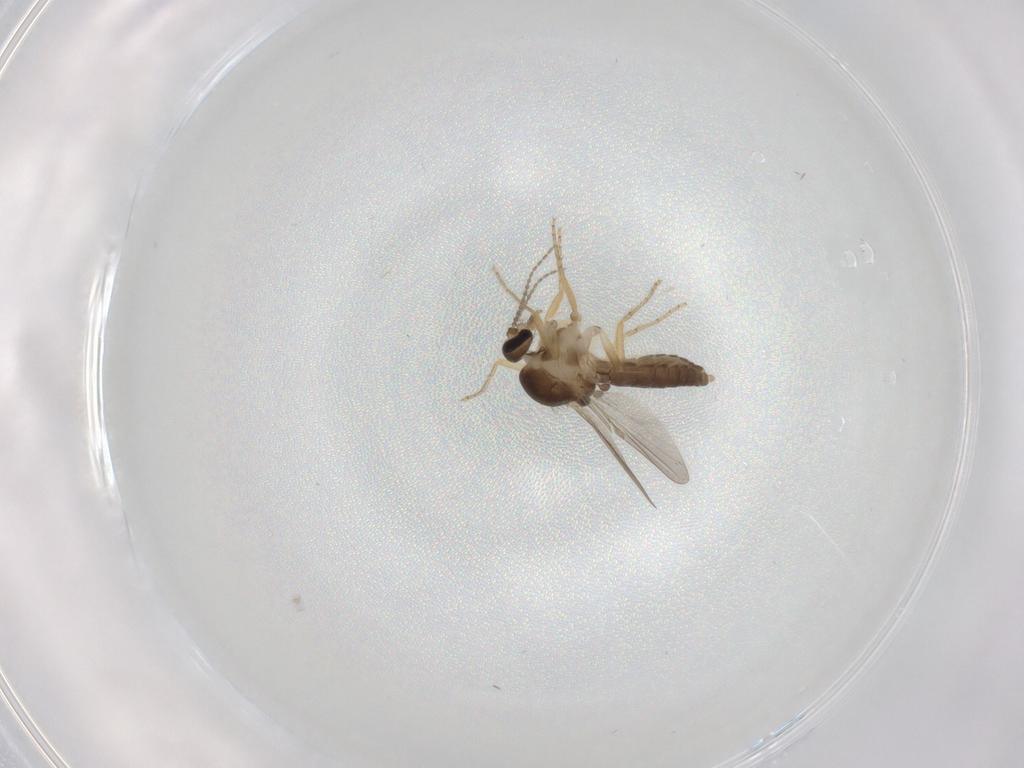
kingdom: Animalia
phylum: Arthropoda
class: Insecta
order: Diptera
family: Ceratopogonidae
